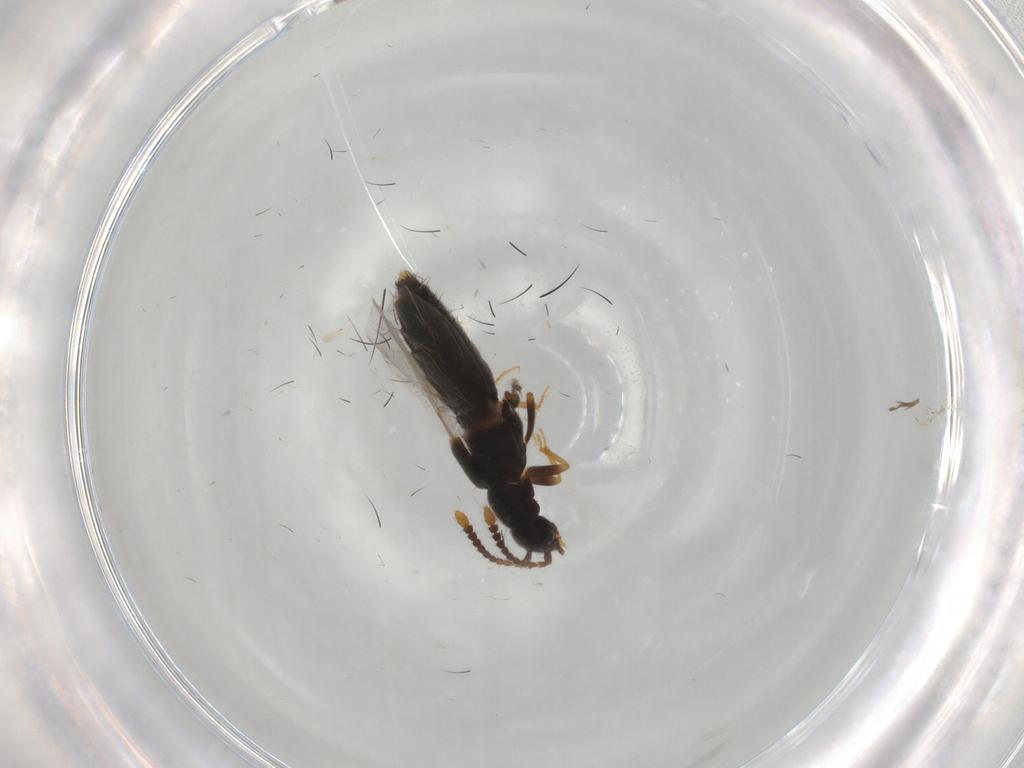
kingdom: Animalia
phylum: Arthropoda
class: Insecta
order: Coleoptera
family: Staphylinidae
